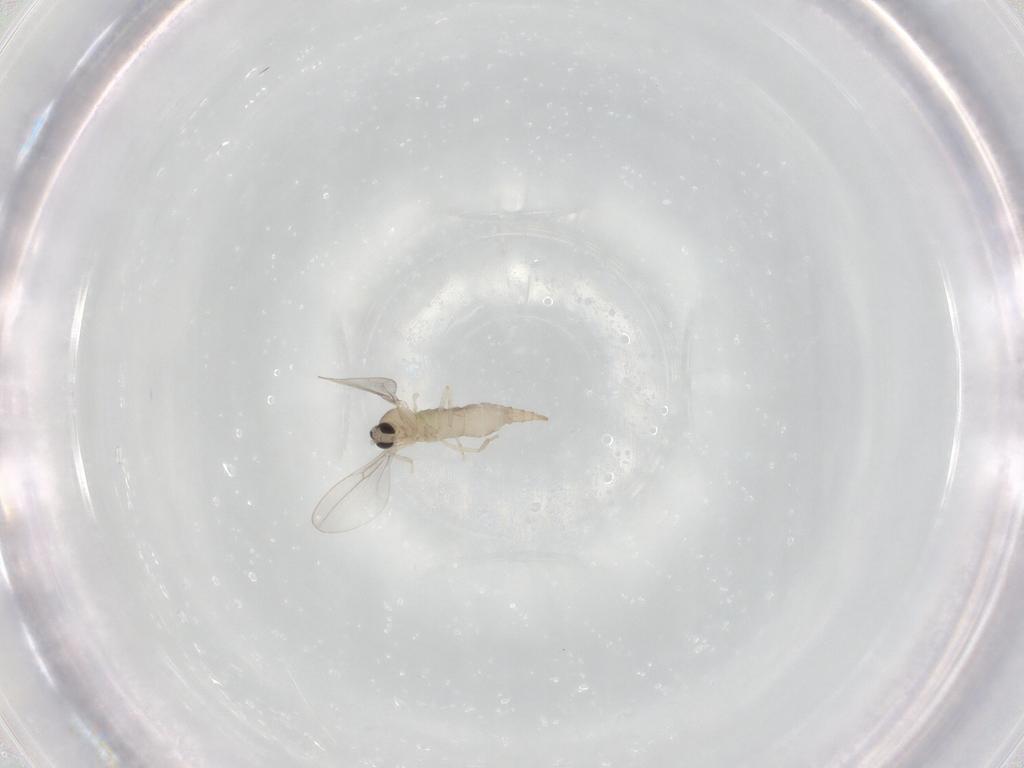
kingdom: Animalia
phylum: Arthropoda
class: Insecta
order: Diptera
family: Cecidomyiidae
